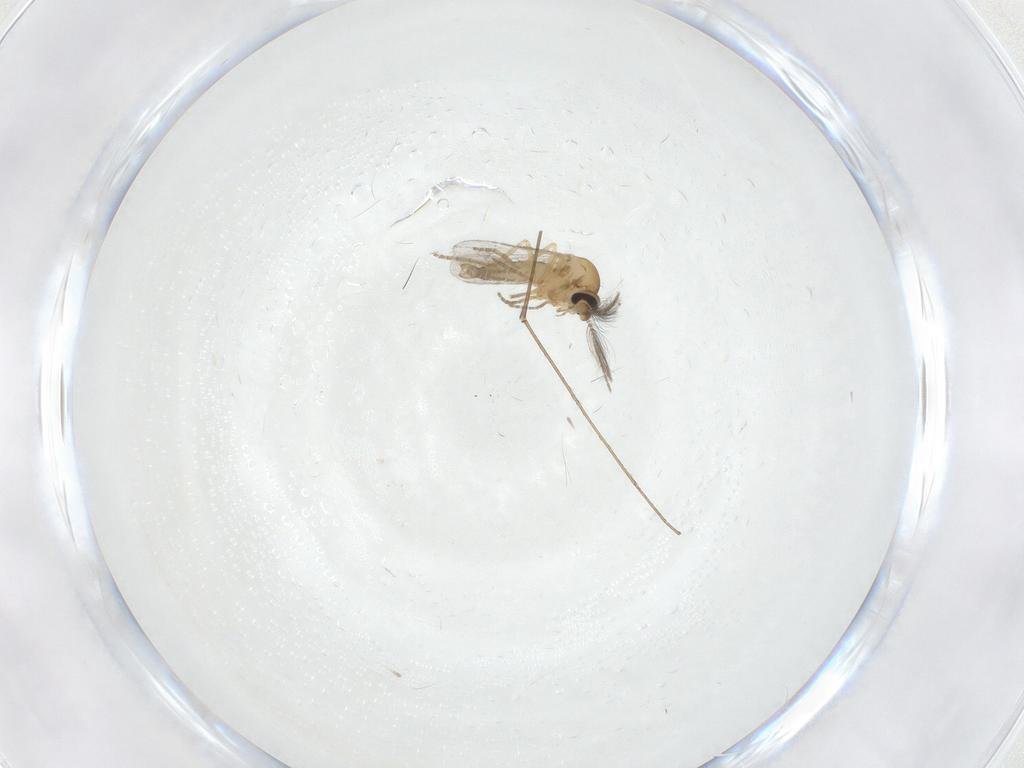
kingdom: Animalia
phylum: Arthropoda
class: Insecta
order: Diptera
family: Ceratopogonidae
